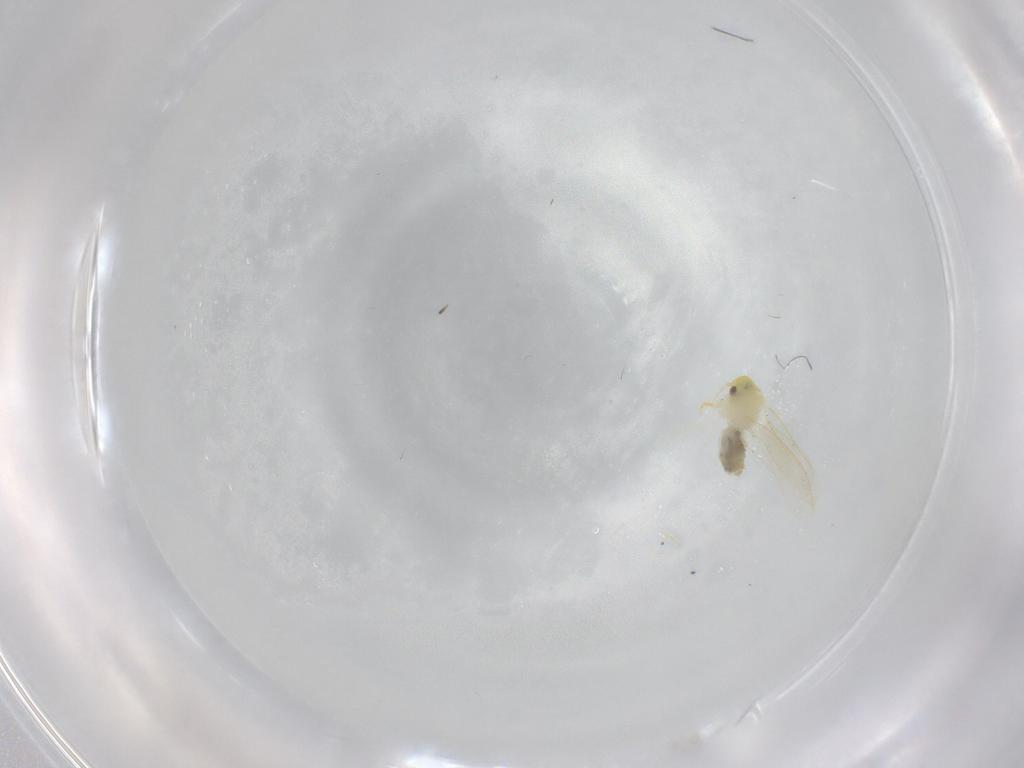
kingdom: Animalia
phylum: Arthropoda
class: Insecta
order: Hemiptera
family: Aleyrodidae
